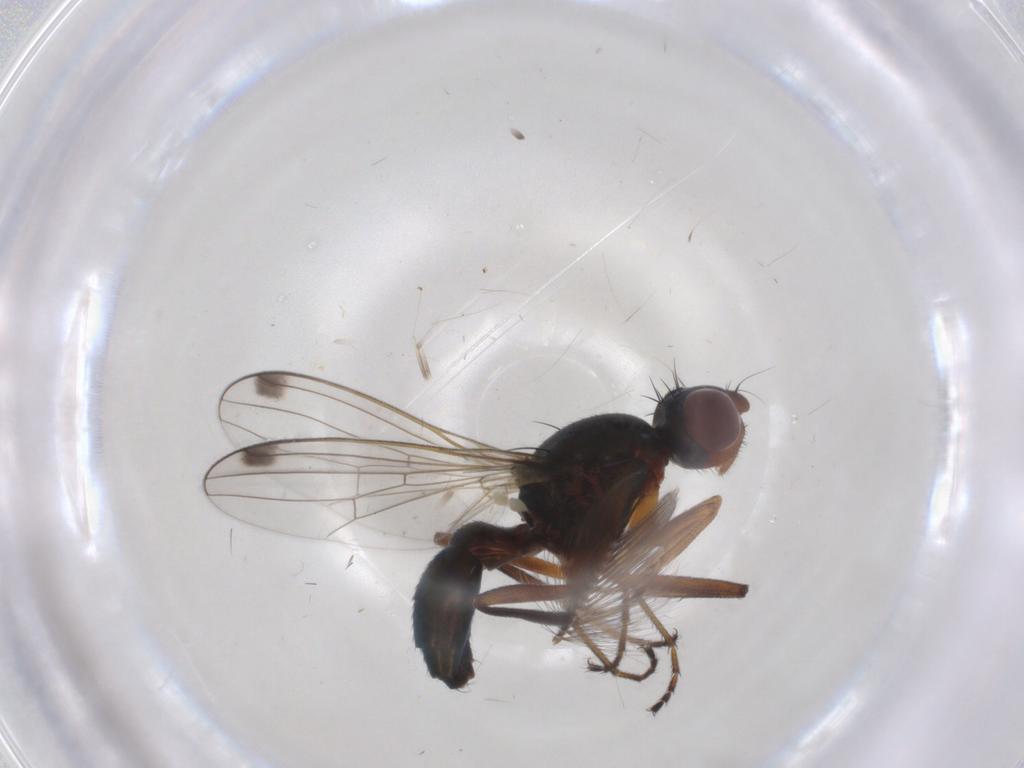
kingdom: Animalia
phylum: Arthropoda
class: Insecta
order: Diptera
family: Sepsidae
